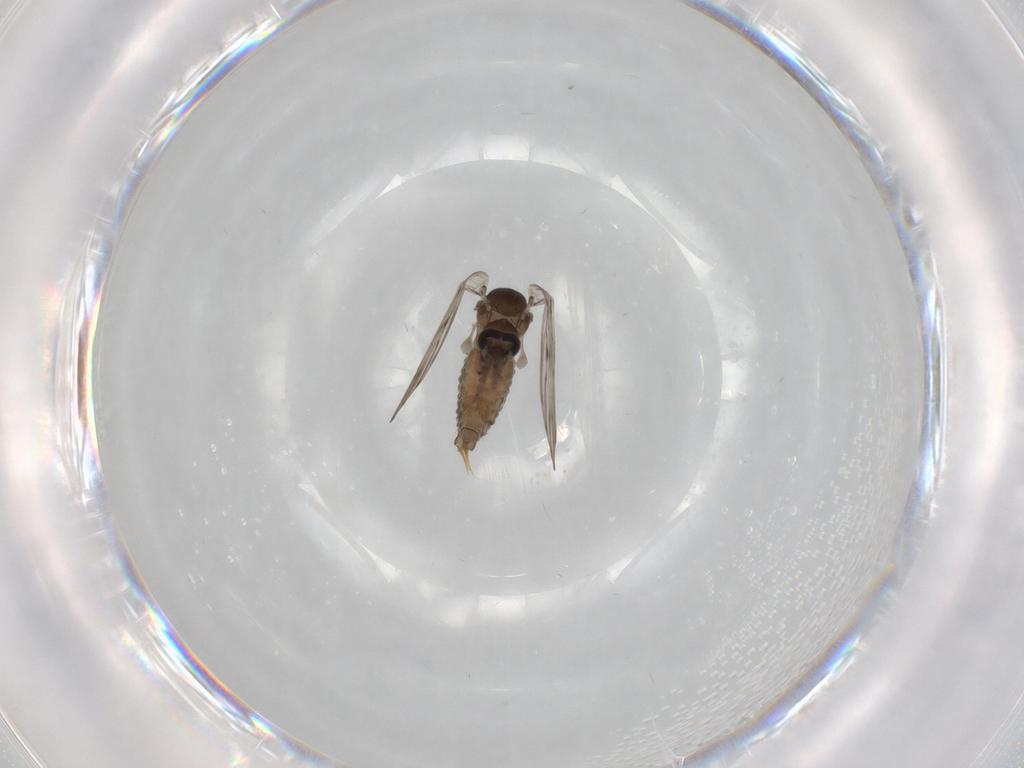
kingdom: Animalia
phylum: Arthropoda
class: Insecta
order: Diptera
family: Psychodidae
